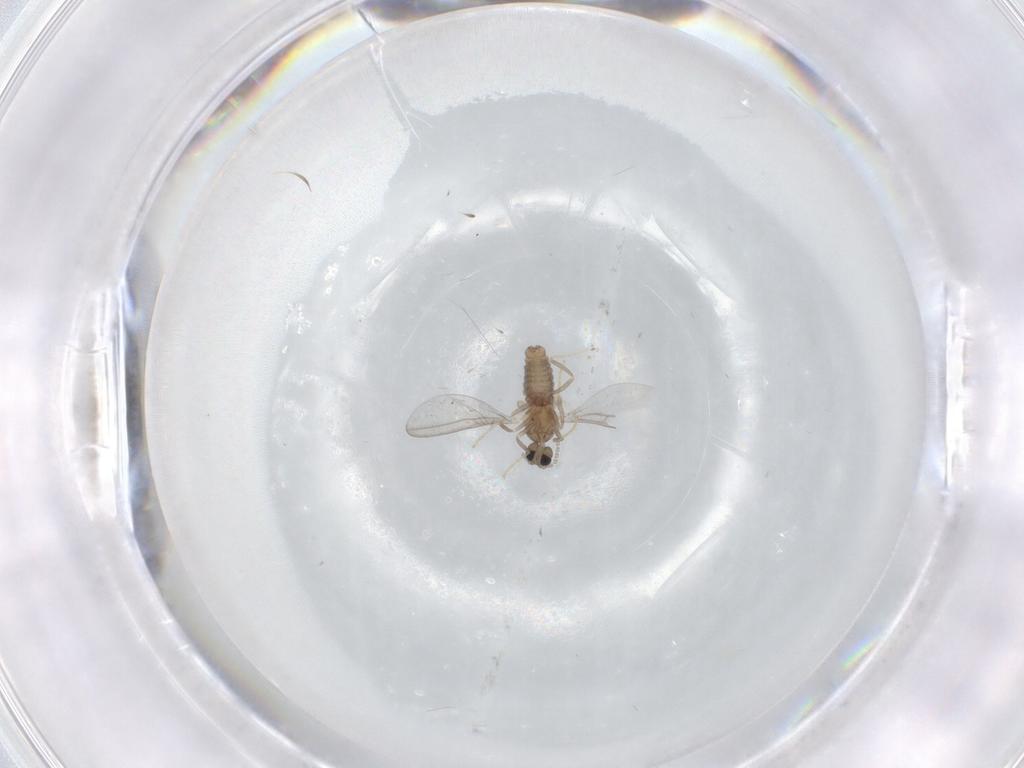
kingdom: Animalia
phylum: Arthropoda
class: Insecta
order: Diptera
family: Cecidomyiidae
